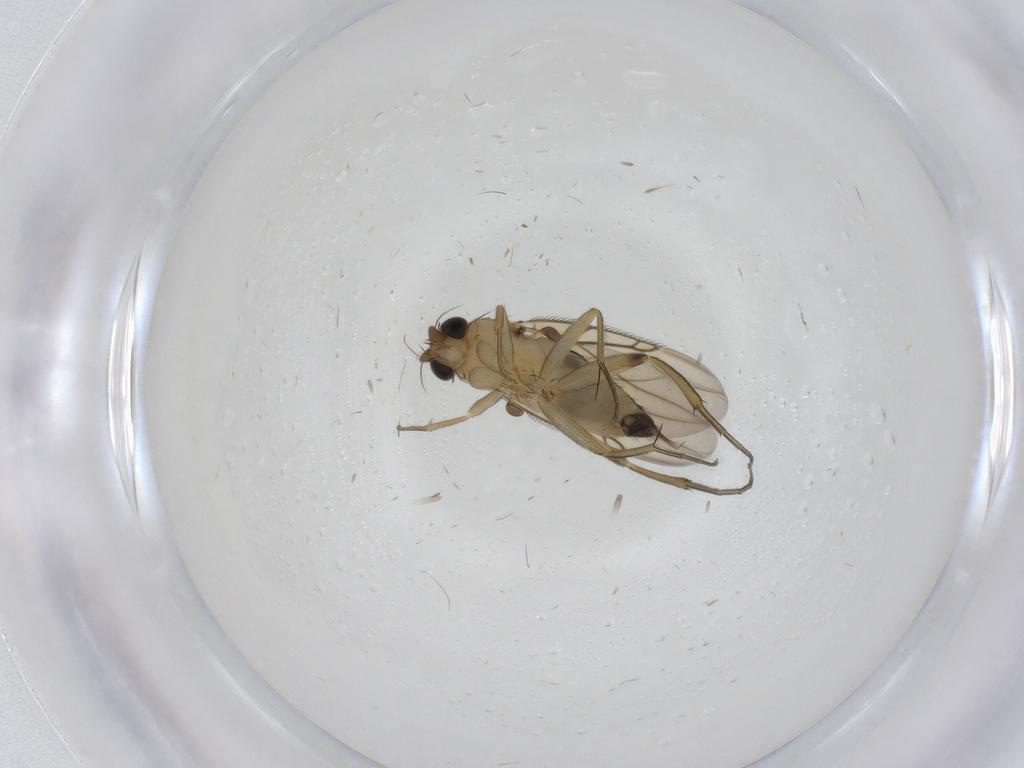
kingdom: Animalia
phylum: Arthropoda
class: Insecta
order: Diptera
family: Phoridae
